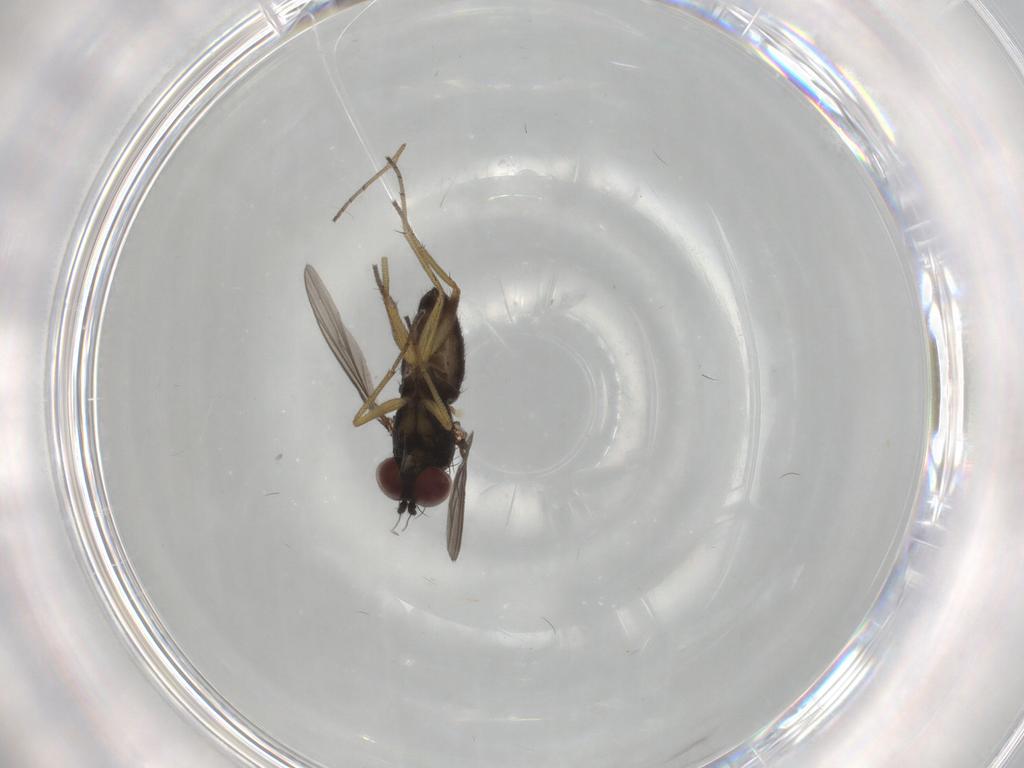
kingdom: Animalia
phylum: Arthropoda
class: Insecta
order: Diptera
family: Dolichopodidae
